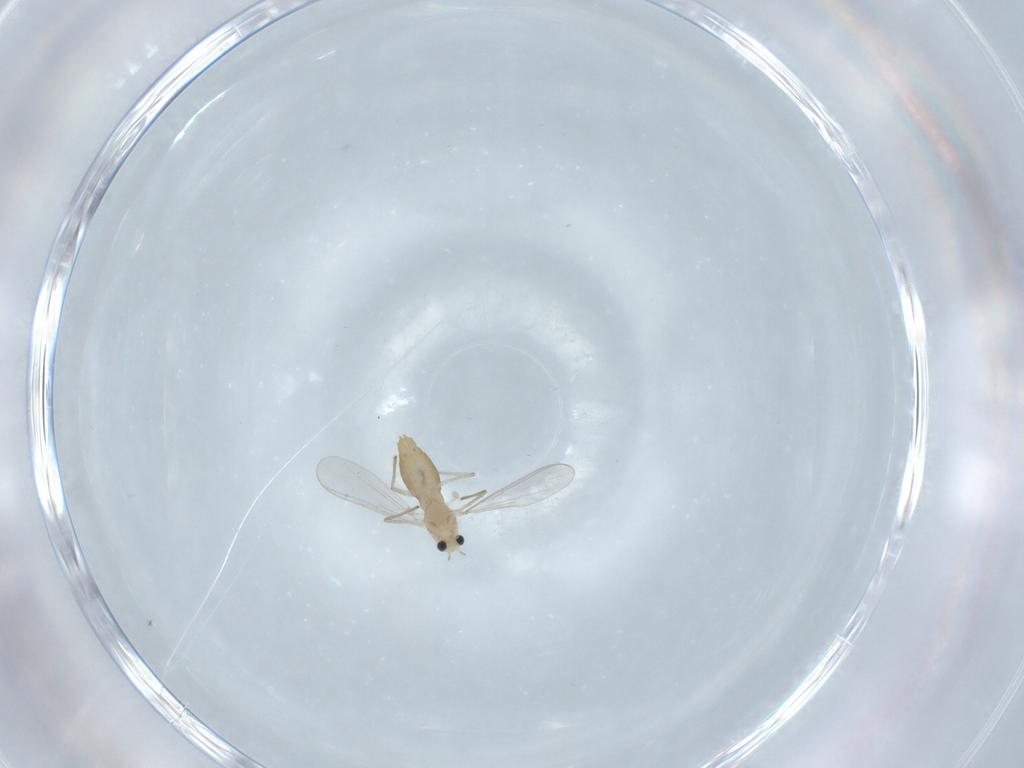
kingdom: Animalia
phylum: Arthropoda
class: Insecta
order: Diptera
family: Chironomidae
